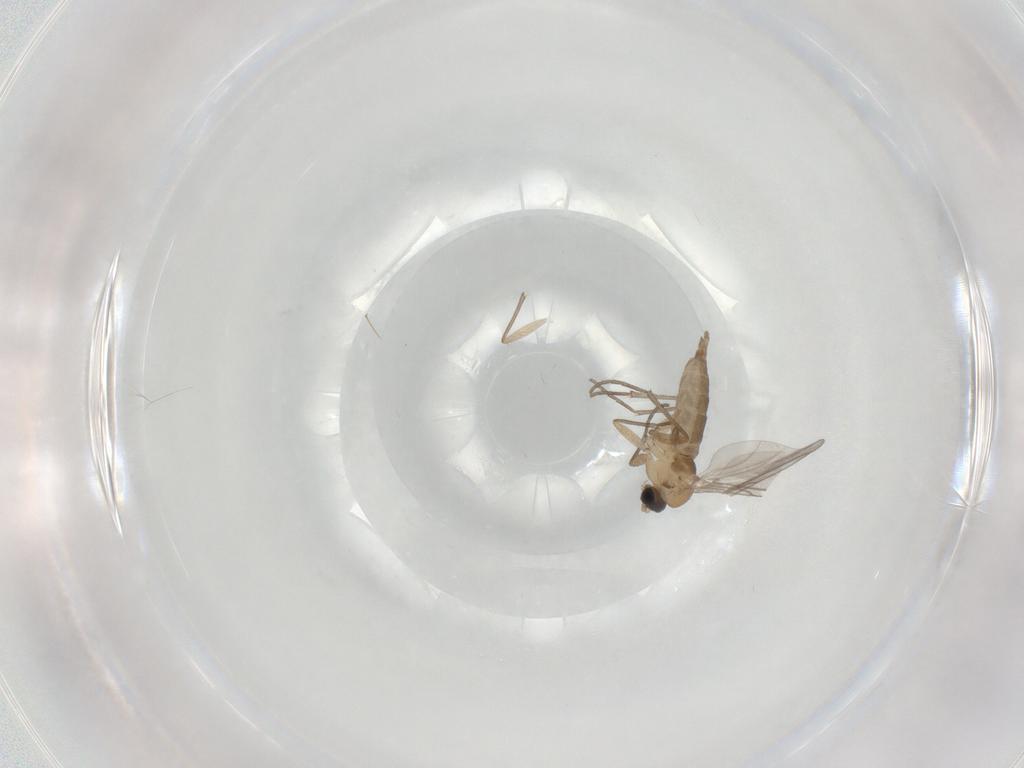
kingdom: Animalia
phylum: Arthropoda
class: Insecta
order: Diptera
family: Sciaridae
